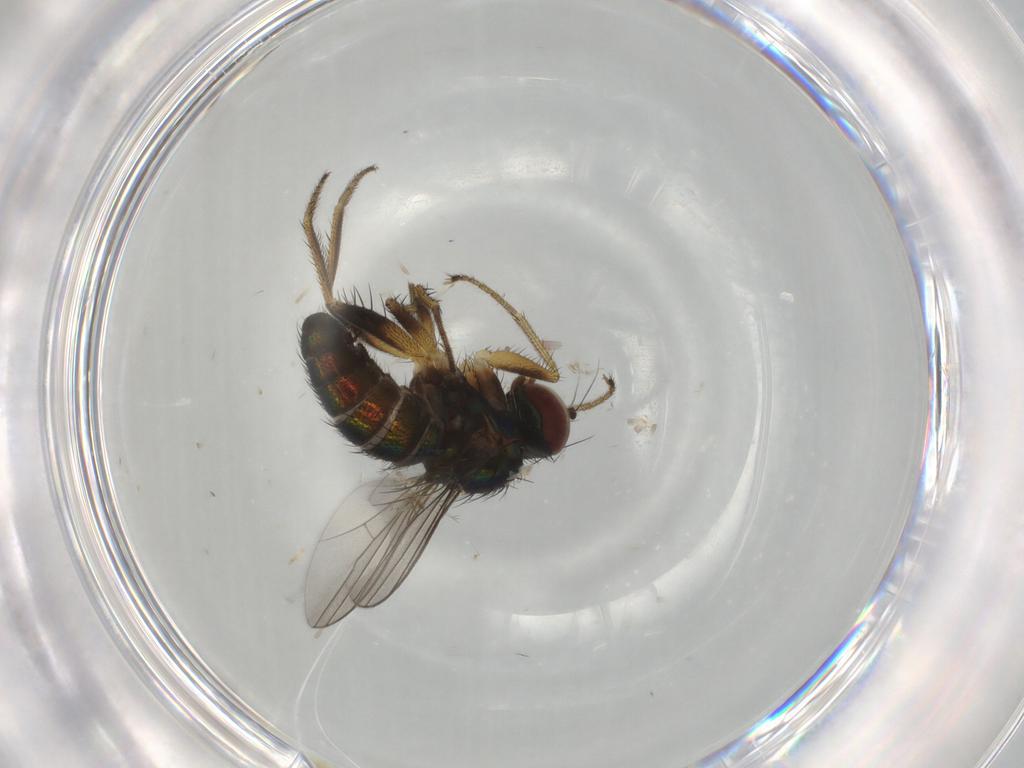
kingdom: Animalia
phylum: Arthropoda
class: Insecta
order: Diptera
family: Dolichopodidae
